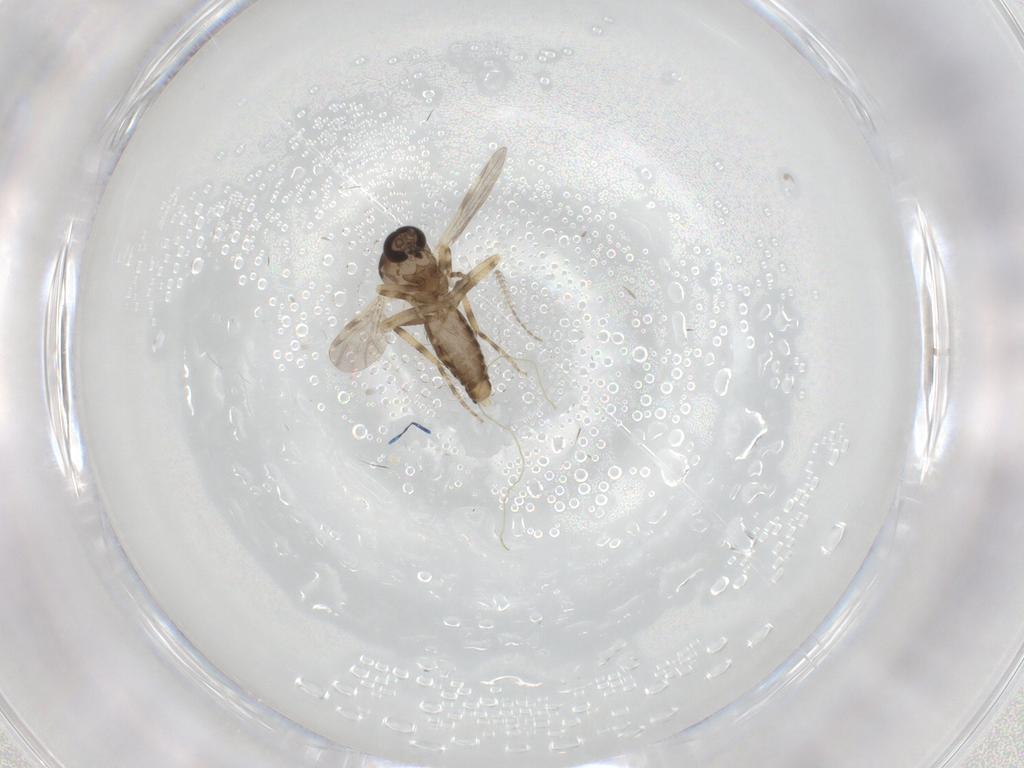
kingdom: Animalia
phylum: Arthropoda
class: Insecta
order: Diptera
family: Ceratopogonidae
